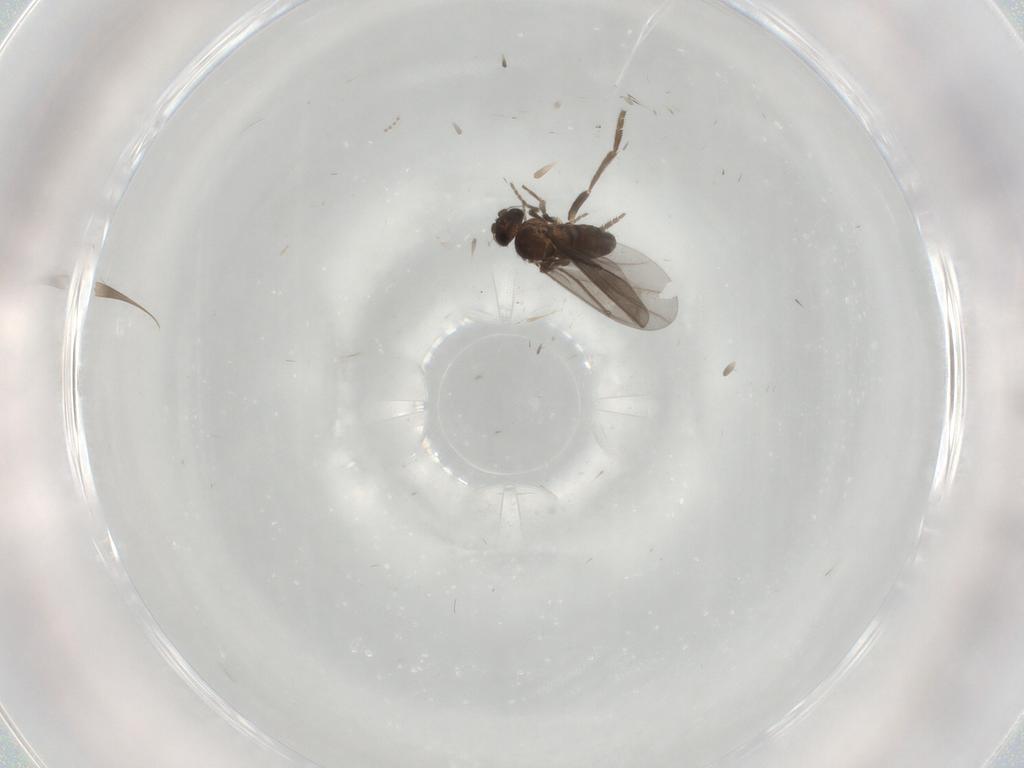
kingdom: Animalia
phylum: Arthropoda
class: Insecta
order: Diptera
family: Phoridae
